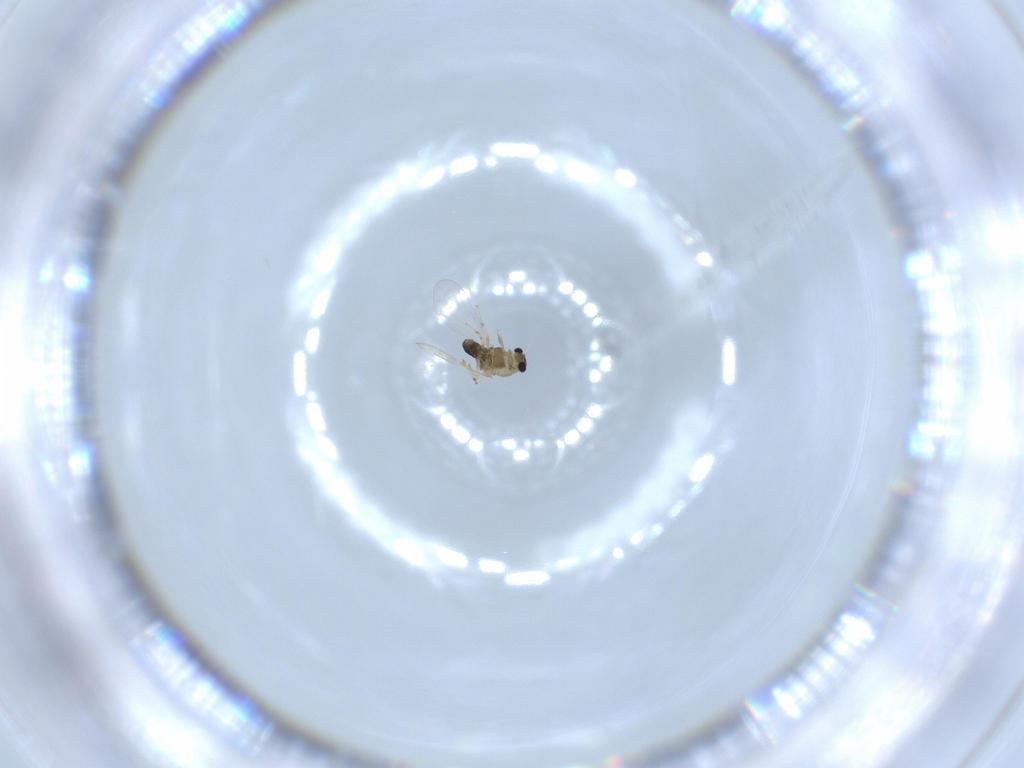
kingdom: Animalia
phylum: Arthropoda
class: Insecta
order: Diptera
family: Chironomidae
